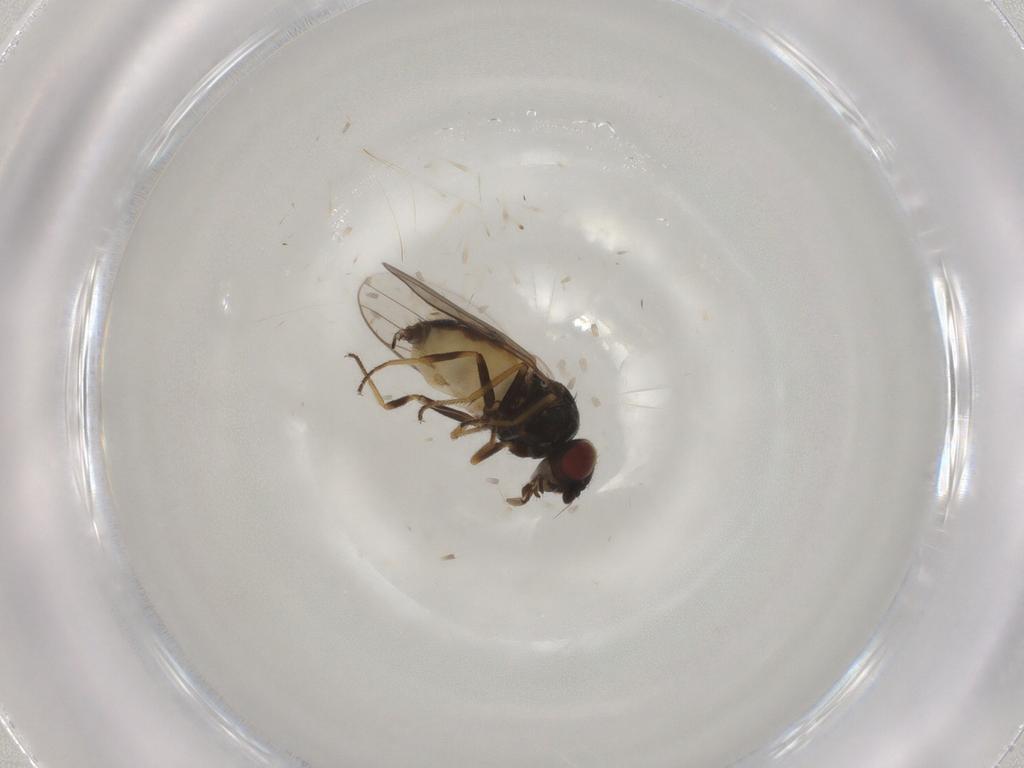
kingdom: Animalia
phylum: Arthropoda
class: Insecta
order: Diptera
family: Chloropidae
